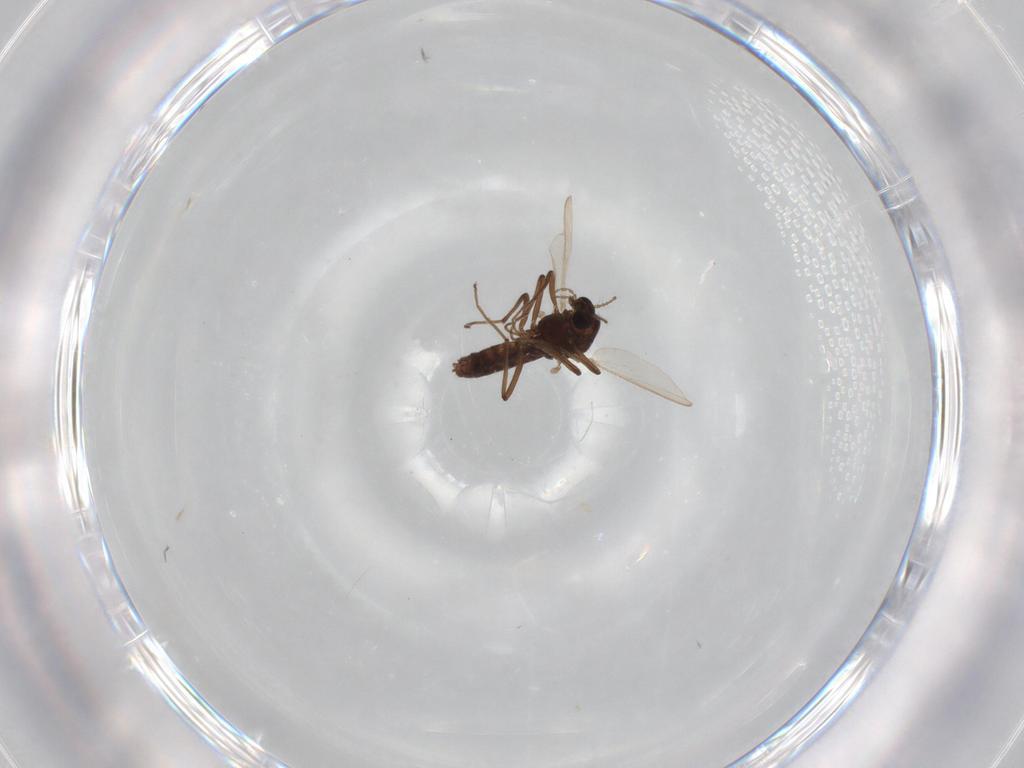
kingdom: Animalia
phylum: Arthropoda
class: Insecta
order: Diptera
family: Chironomidae
